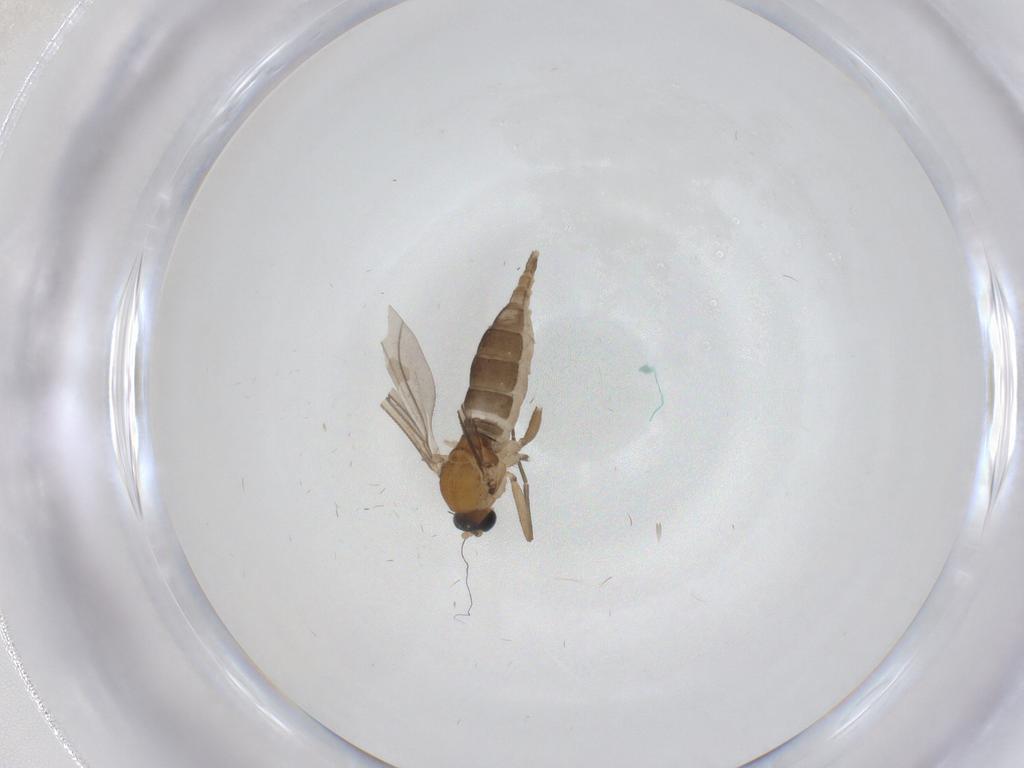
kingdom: Animalia
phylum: Arthropoda
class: Insecta
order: Diptera
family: Sciaridae
